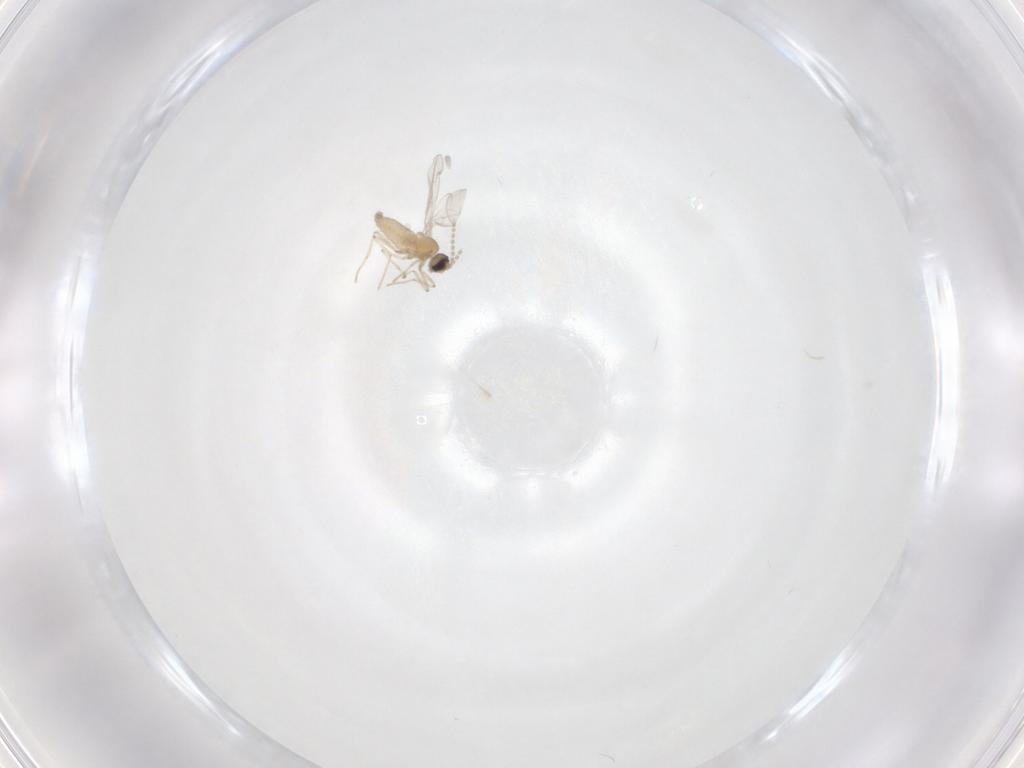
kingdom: Animalia
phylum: Arthropoda
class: Insecta
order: Diptera
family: Cecidomyiidae
